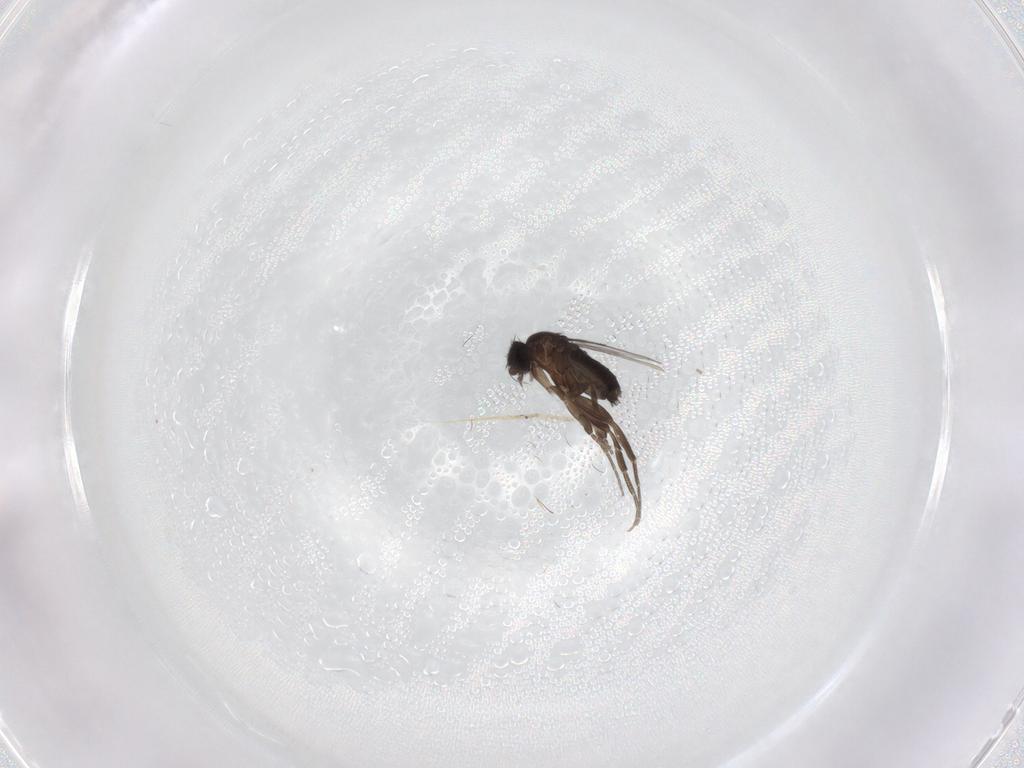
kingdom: Animalia
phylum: Arthropoda
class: Insecta
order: Diptera
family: Phoridae
